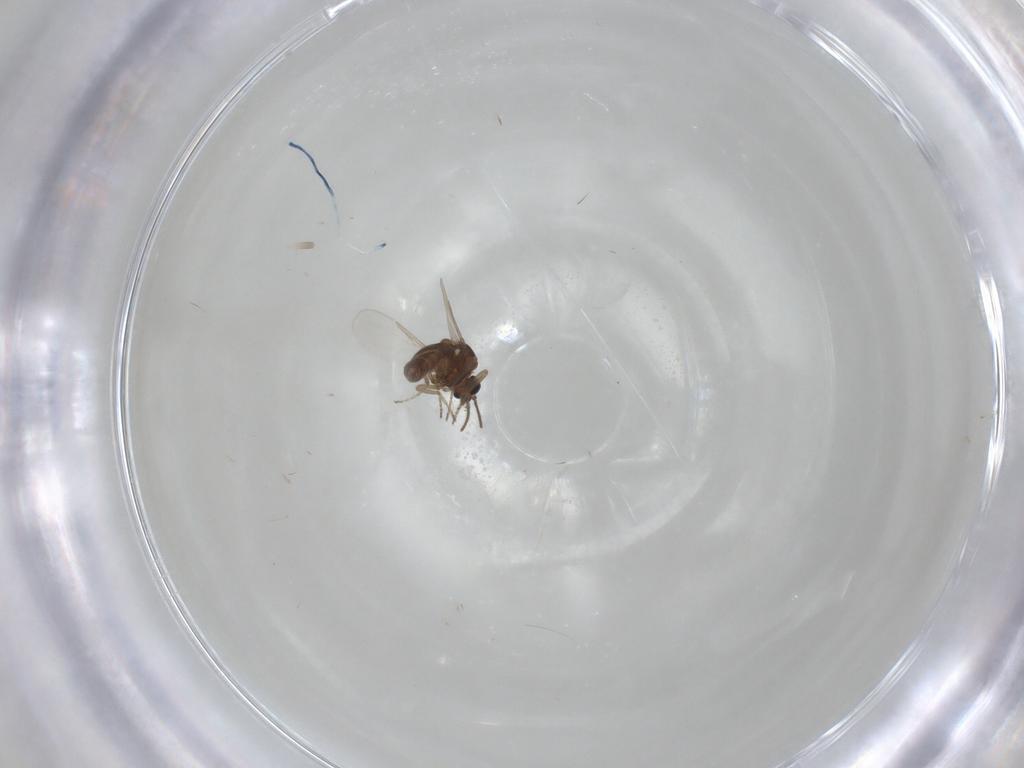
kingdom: Animalia
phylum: Arthropoda
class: Insecta
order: Diptera
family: Ceratopogonidae
